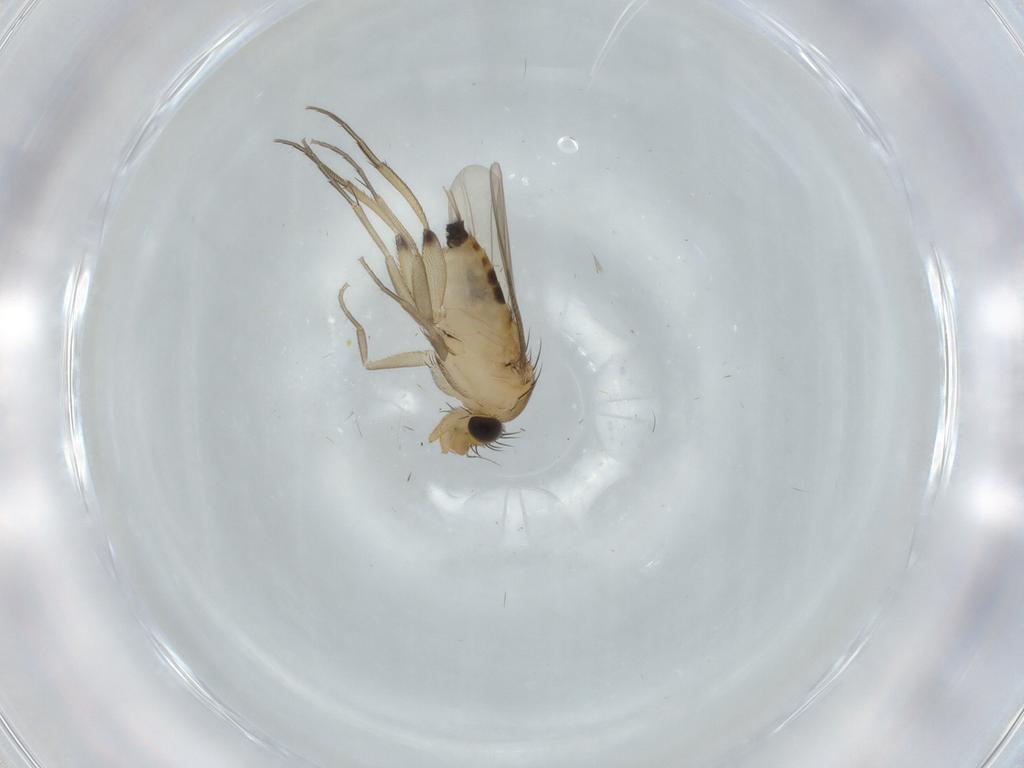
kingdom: Animalia
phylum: Arthropoda
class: Insecta
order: Diptera
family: Phoridae
